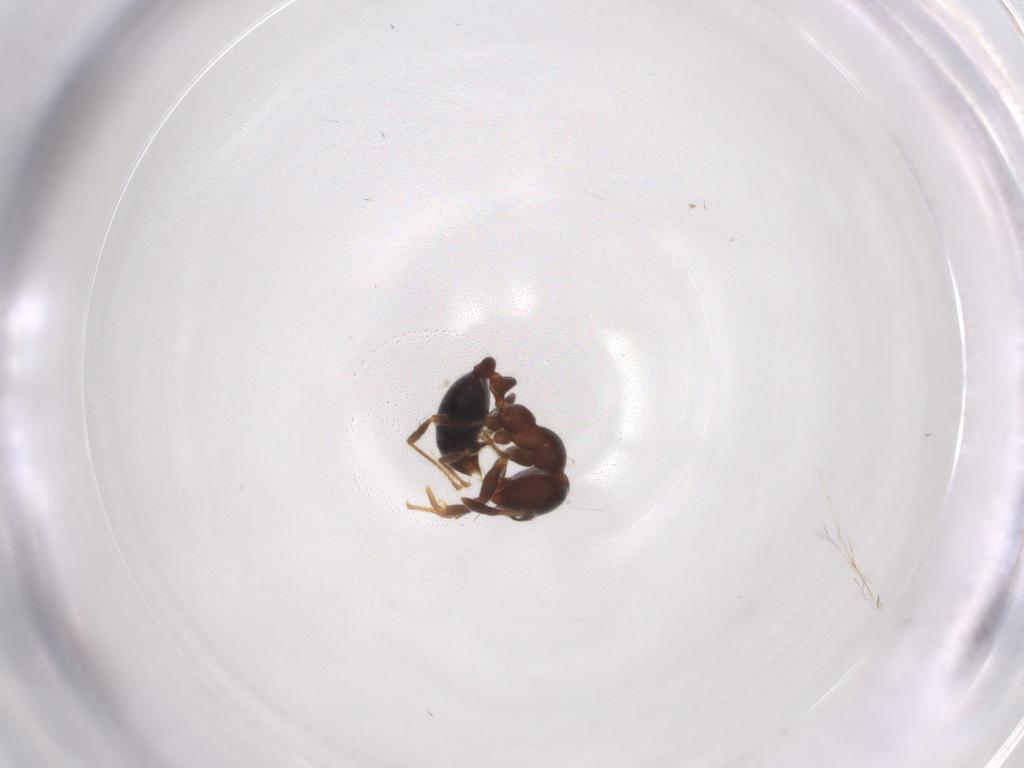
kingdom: Animalia
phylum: Arthropoda
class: Insecta
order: Hymenoptera
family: Formicidae
